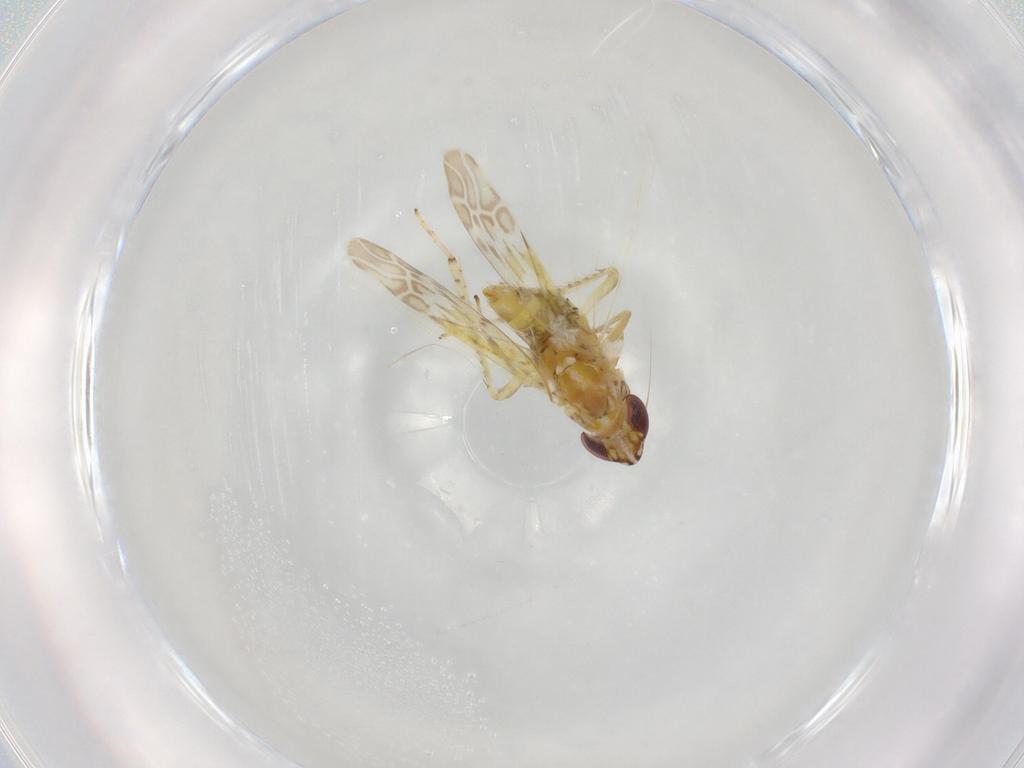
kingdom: Animalia
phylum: Arthropoda
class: Insecta
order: Hemiptera
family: Cicadellidae
